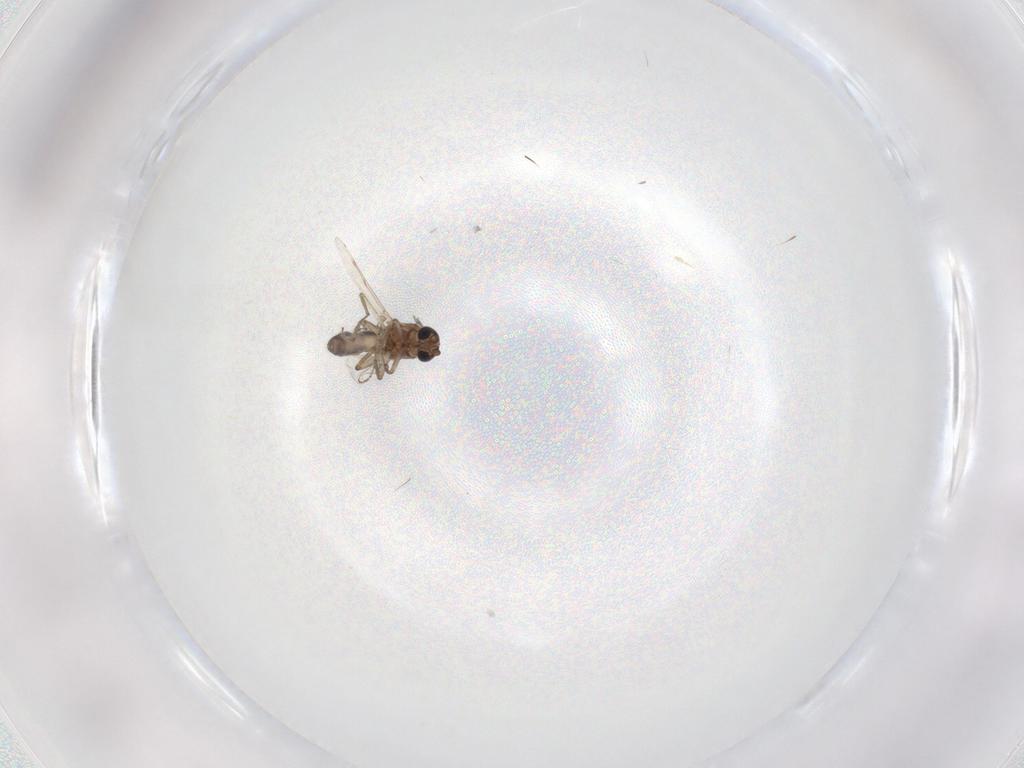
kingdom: Animalia
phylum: Arthropoda
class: Insecta
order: Diptera
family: Ceratopogonidae
